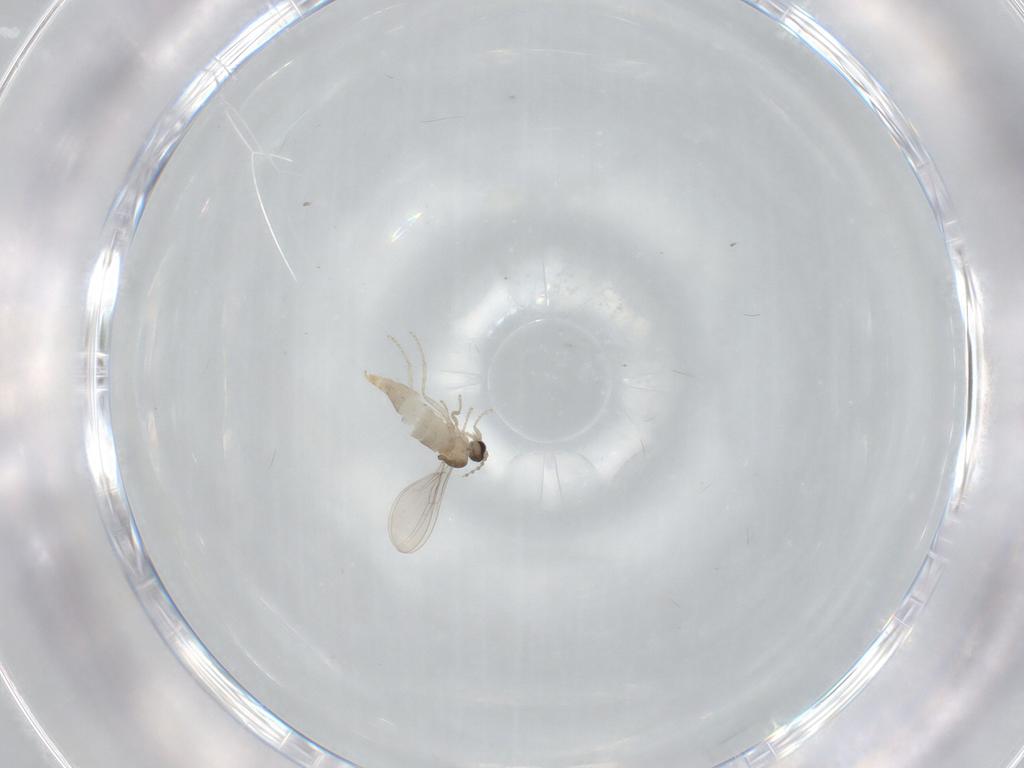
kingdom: Animalia
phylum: Arthropoda
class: Insecta
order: Diptera
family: Cecidomyiidae
